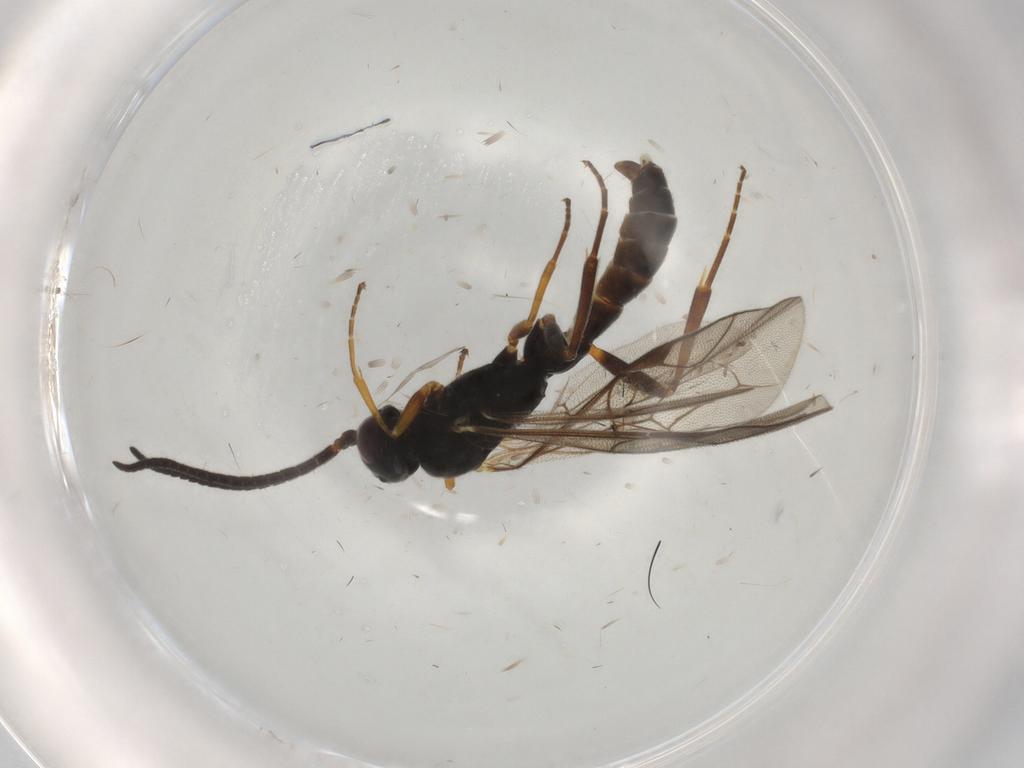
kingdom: Animalia
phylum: Arthropoda
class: Insecta
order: Hymenoptera
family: Ichneumonidae
